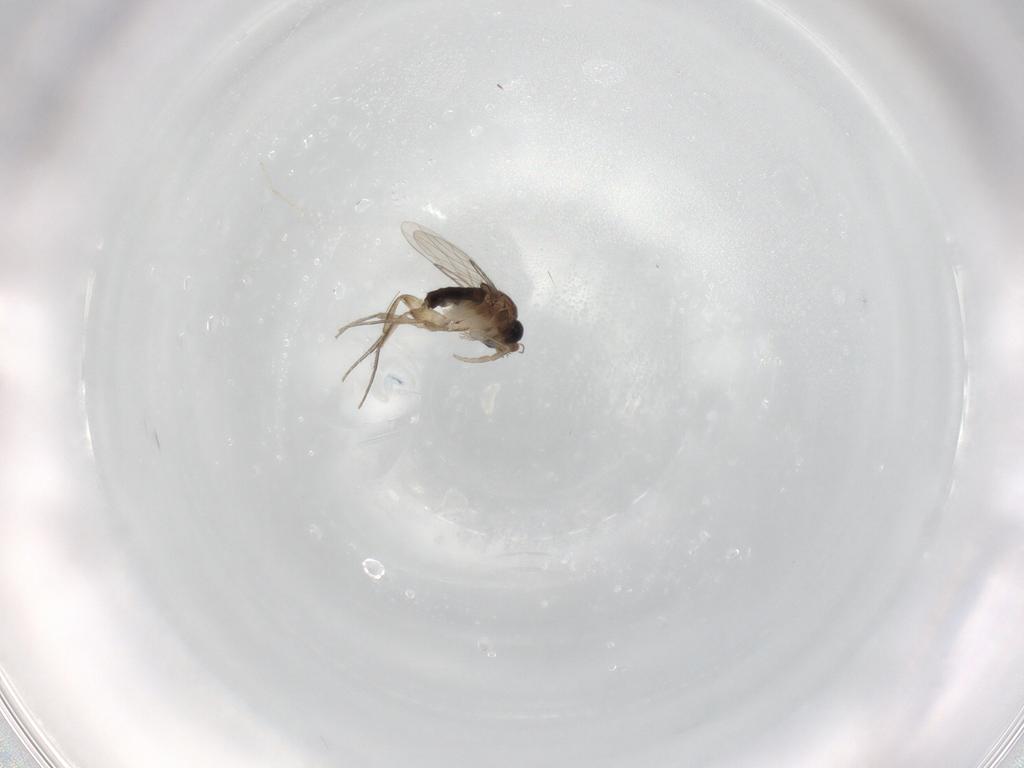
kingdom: Animalia
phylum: Arthropoda
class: Insecta
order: Diptera
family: Phoridae
